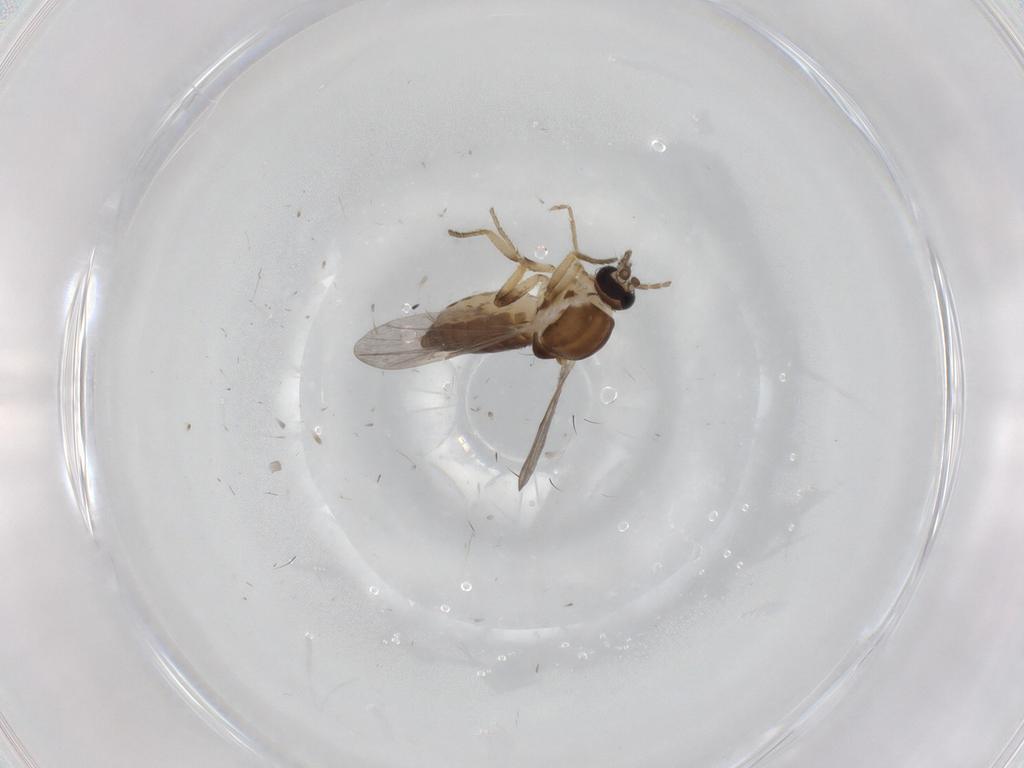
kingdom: Animalia
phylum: Arthropoda
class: Insecta
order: Diptera
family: Ceratopogonidae
